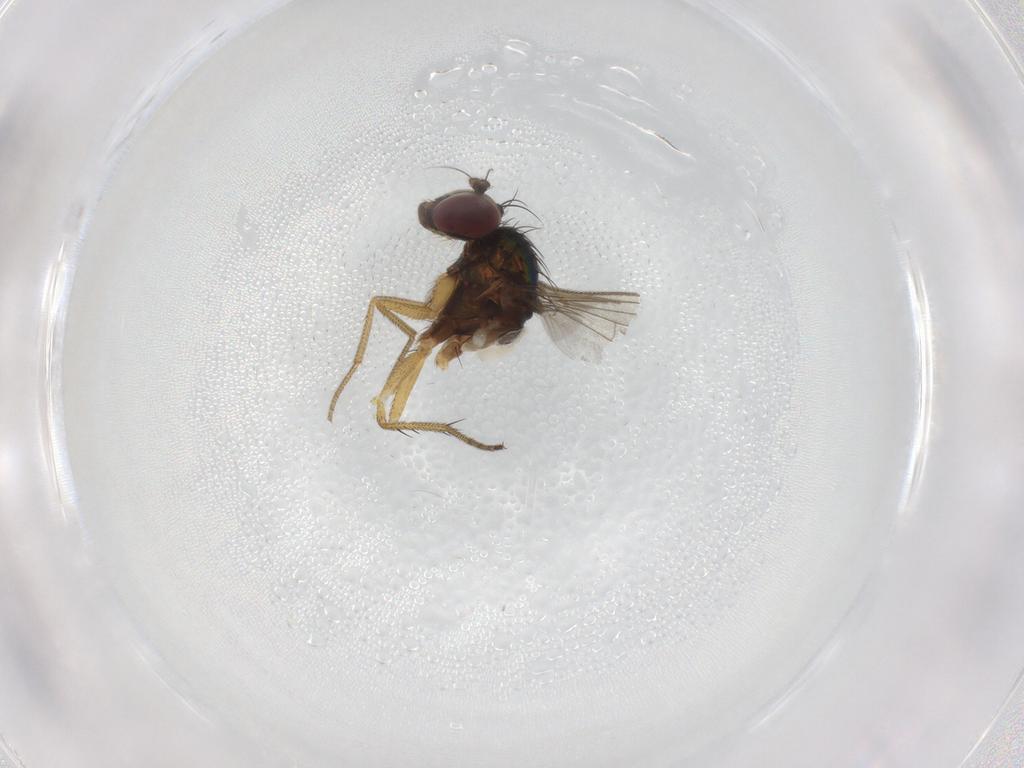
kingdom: Animalia
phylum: Arthropoda
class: Insecta
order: Diptera
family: Dolichopodidae
